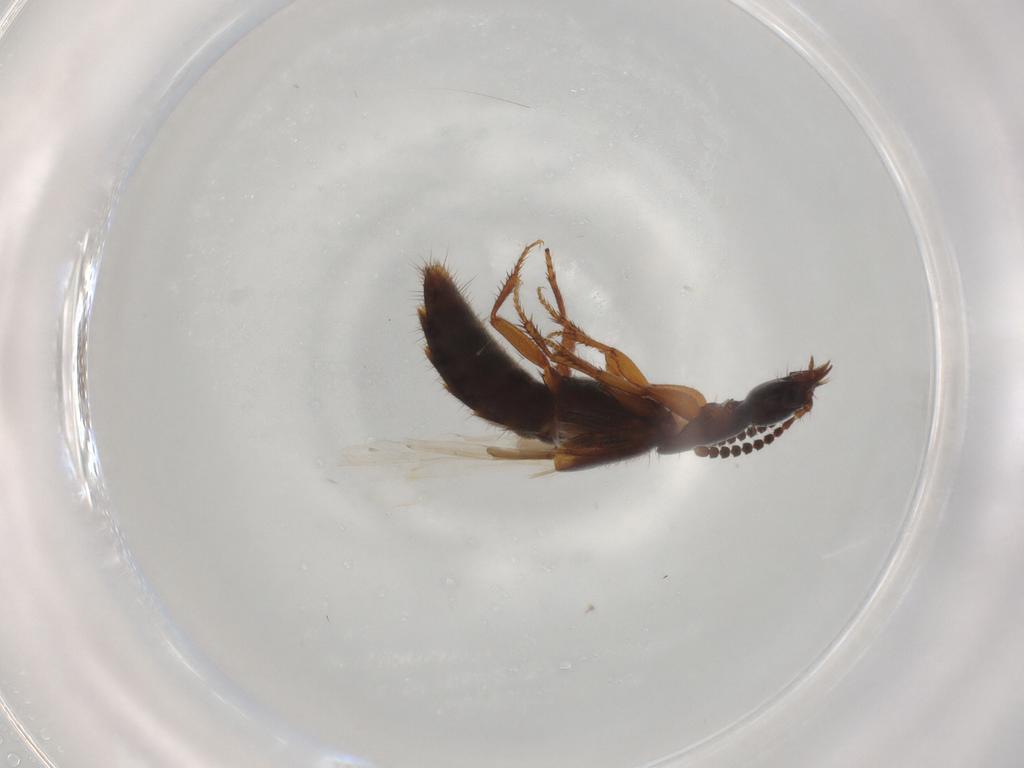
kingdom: Animalia
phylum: Arthropoda
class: Insecta
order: Coleoptera
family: Staphylinidae
